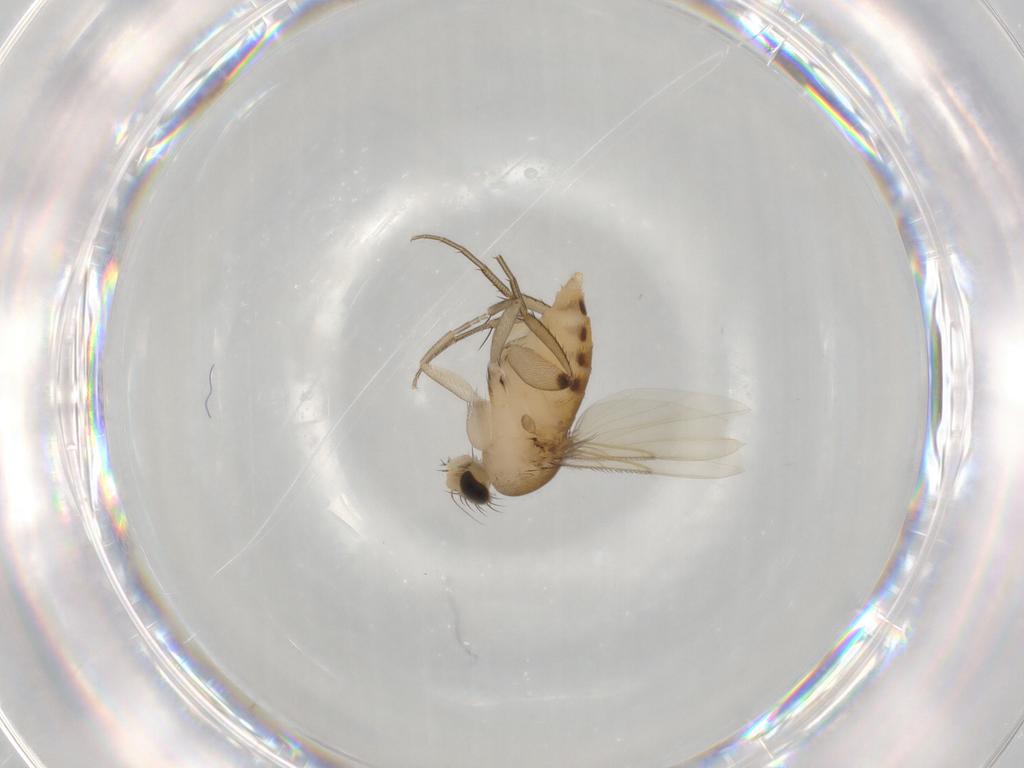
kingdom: Animalia
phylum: Arthropoda
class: Insecta
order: Diptera
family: Phoridae
